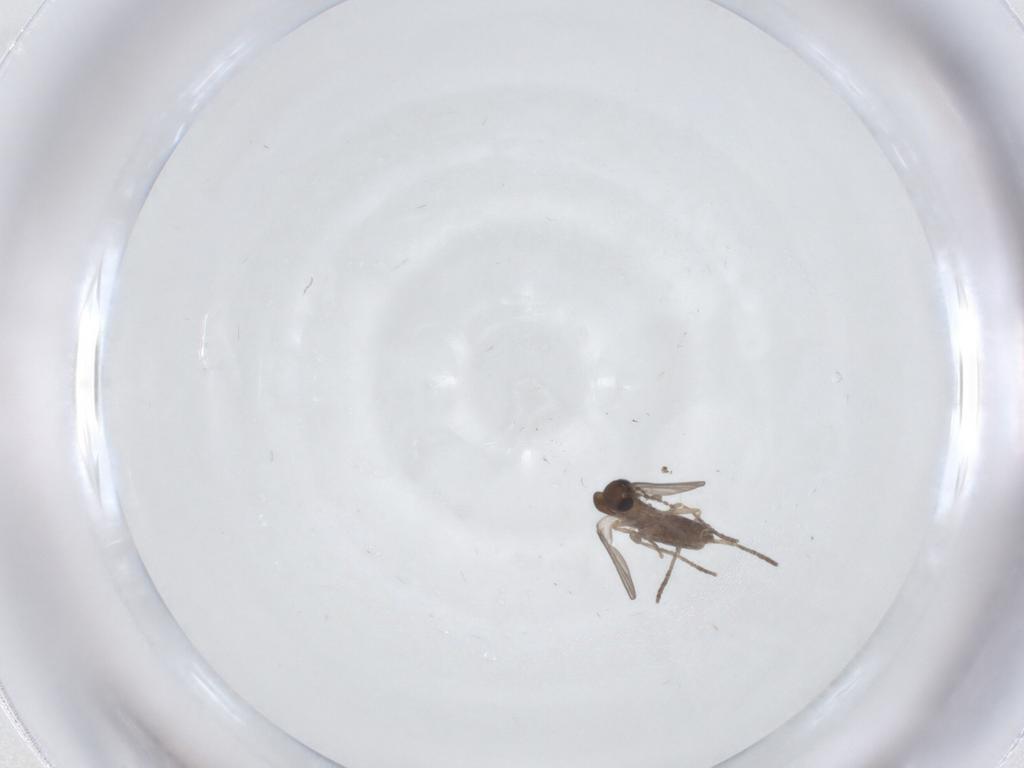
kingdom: Animalia
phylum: Arthropoda
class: Insecta
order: Diptera
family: Psychodidae
